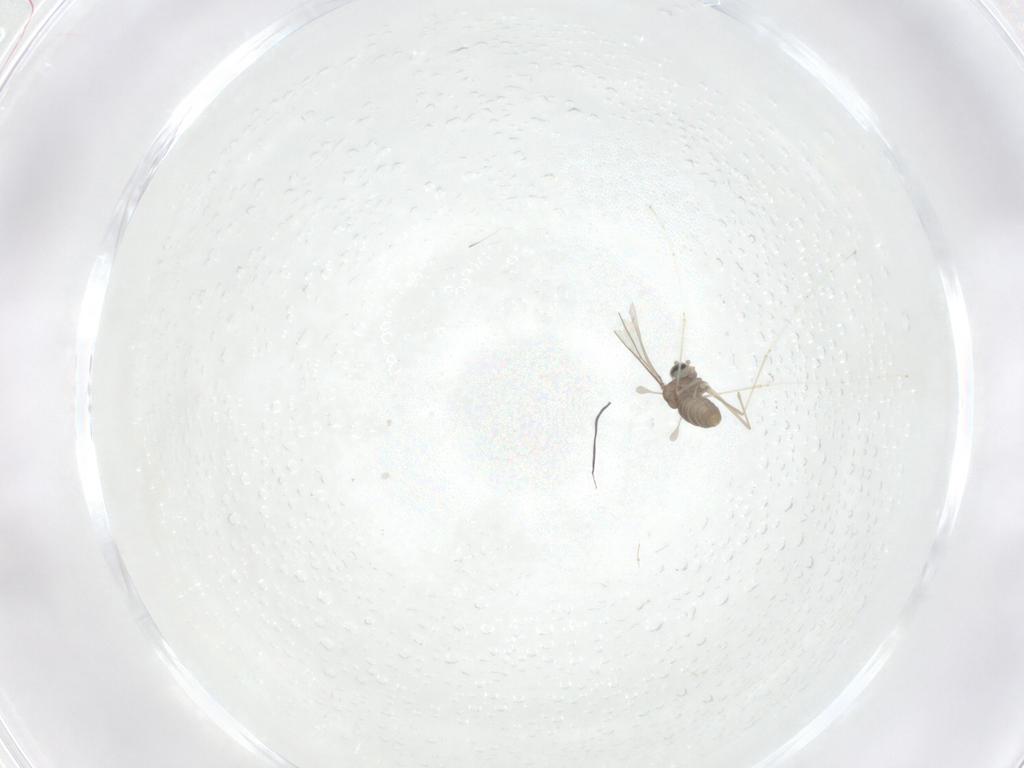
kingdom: Animalia
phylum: Arthropoda
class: Insecta
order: Diptera
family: Cecidomyiidae
